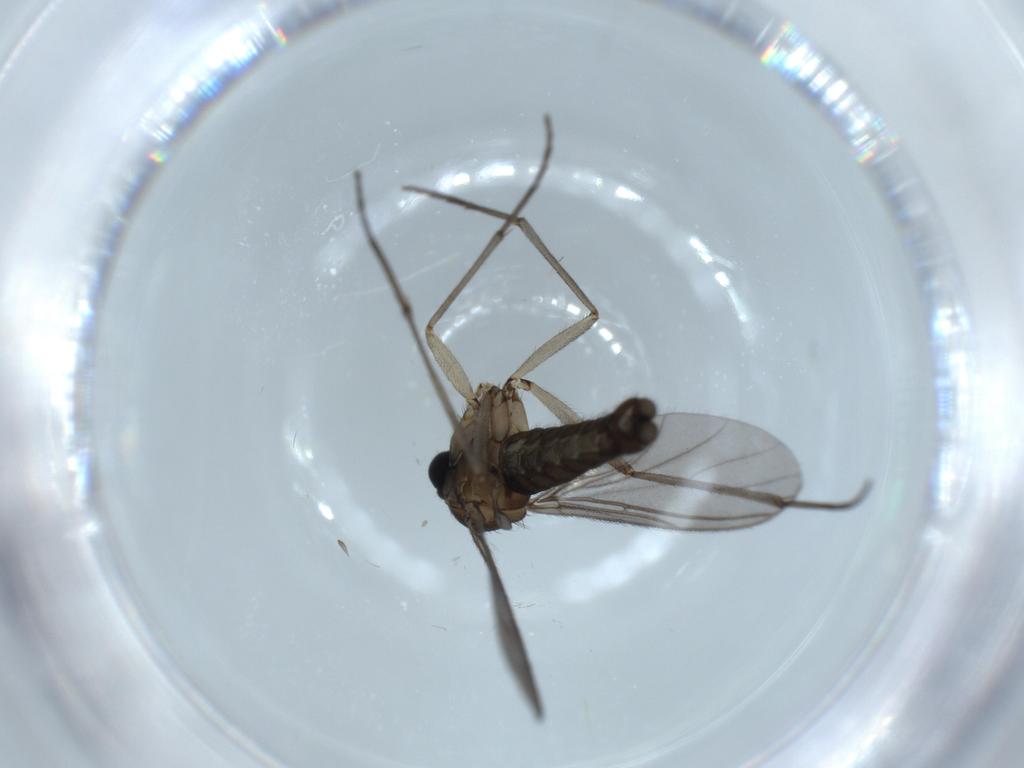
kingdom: Animalia
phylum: Arthropoda
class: Insecta
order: Diptera
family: Sciaridae
